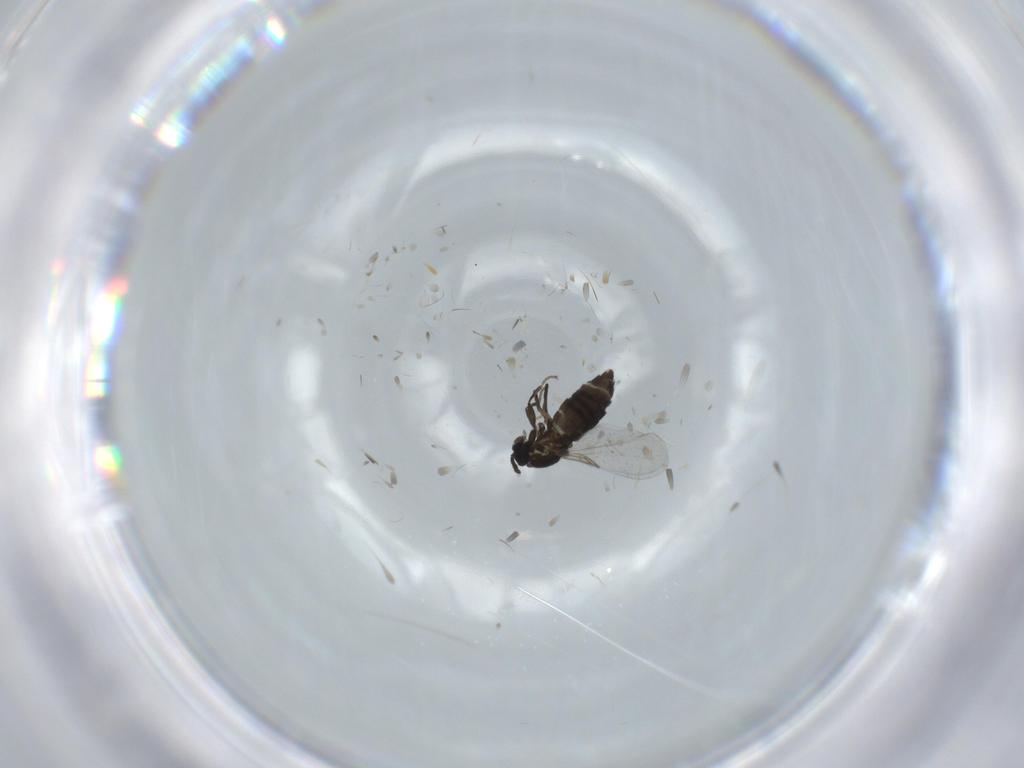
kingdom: Animalia
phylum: Arthropoda
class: Insecta
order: Diptera
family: Scatopsidae
